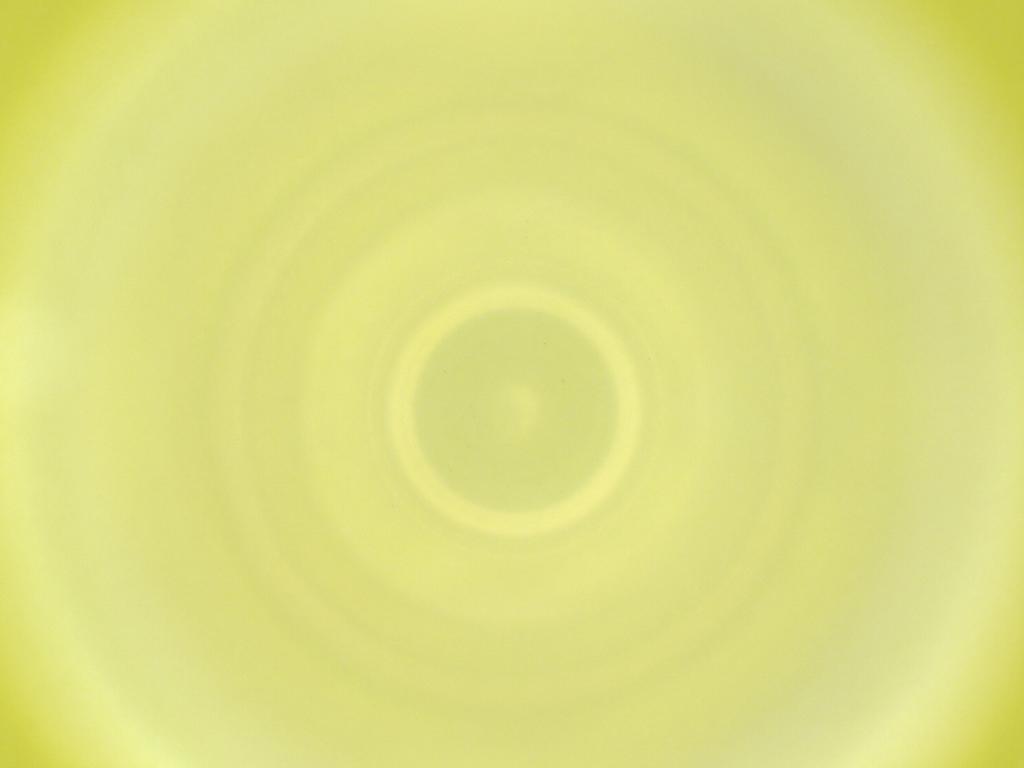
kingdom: Animalia
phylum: Arthropoda
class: Insecta
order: Diptera
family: Cecidomyiidae
